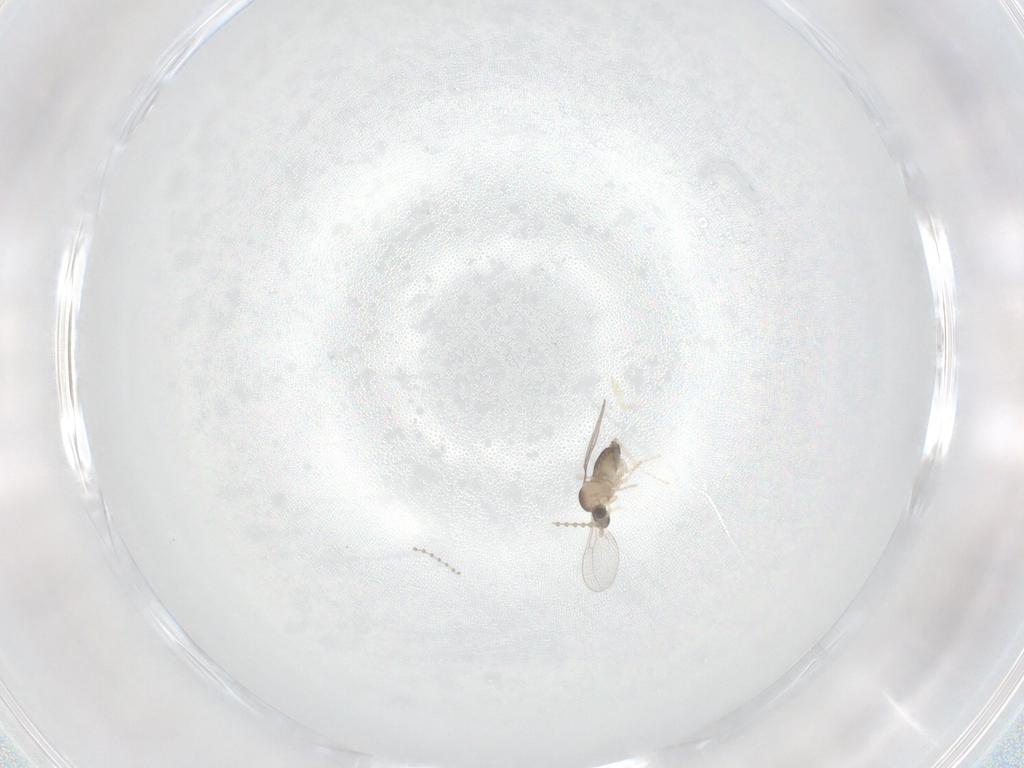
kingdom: Animalia
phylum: Arthropoda
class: Insecta
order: Diptera
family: Cecidomyiidae
